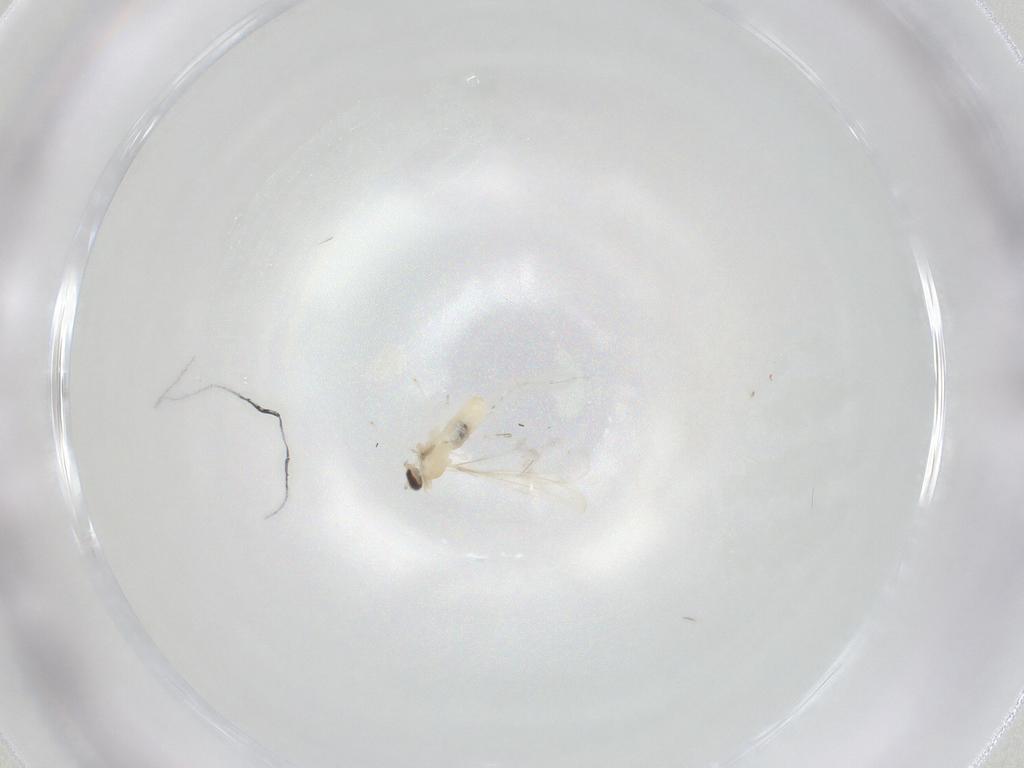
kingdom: Animalia
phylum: Arthropoda
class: Insecta
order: Diptera
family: Cecidomyiidae
